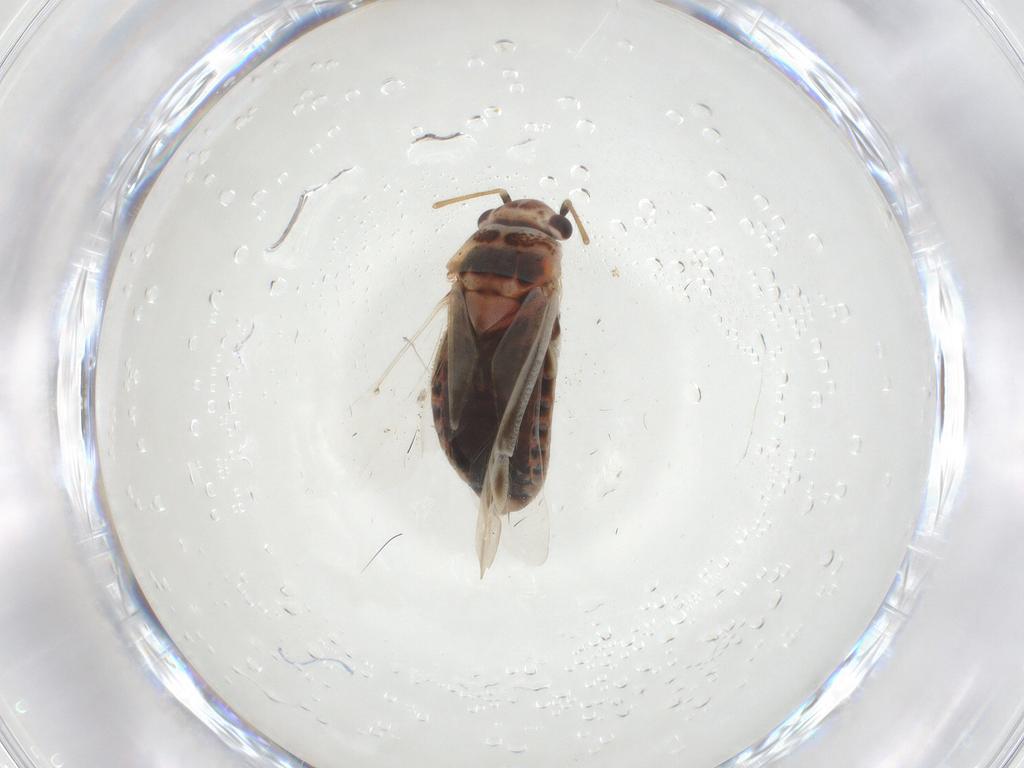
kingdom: Animalia
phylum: Arthropoda
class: Insecta
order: Hemiptera
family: Miridae
